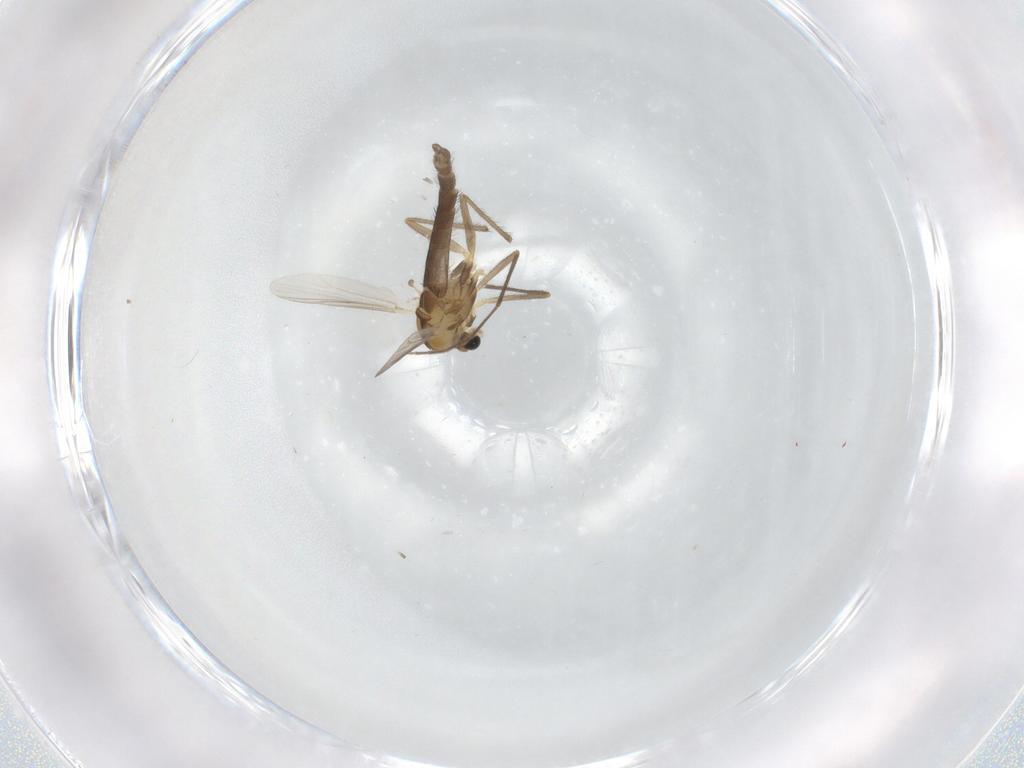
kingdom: Animalia
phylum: Arthropoda
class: Insecta
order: Diptera
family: Chironomidae
